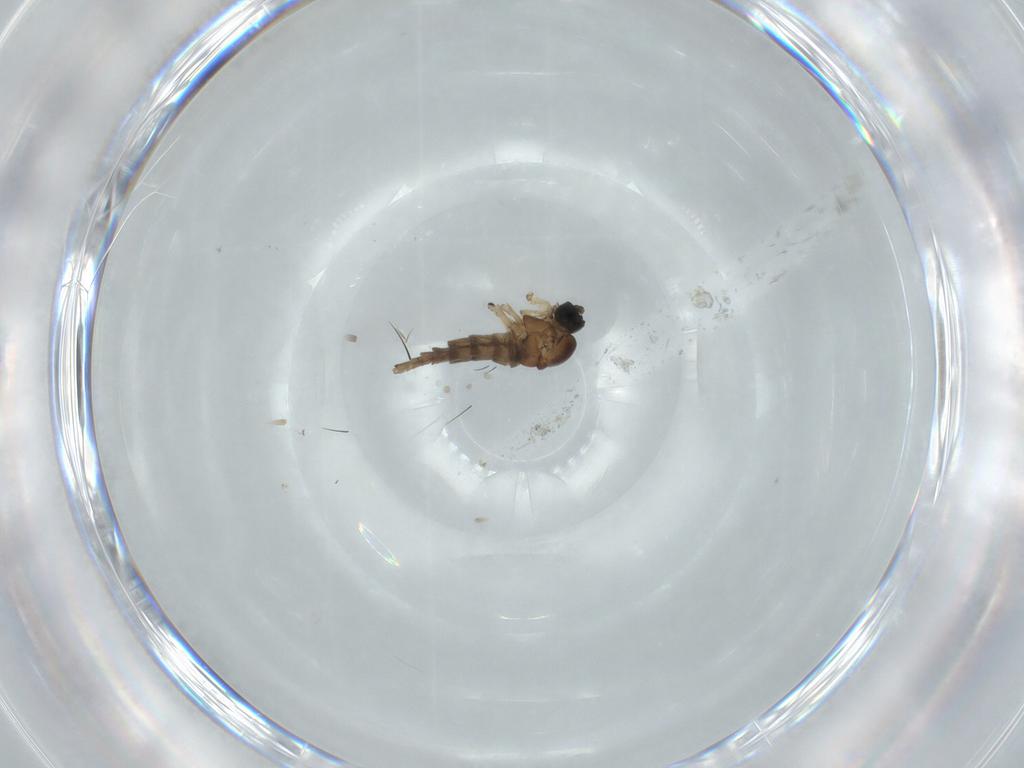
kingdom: Animalia
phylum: Arthropoda
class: Insecta
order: Diptera
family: Sciaridae
